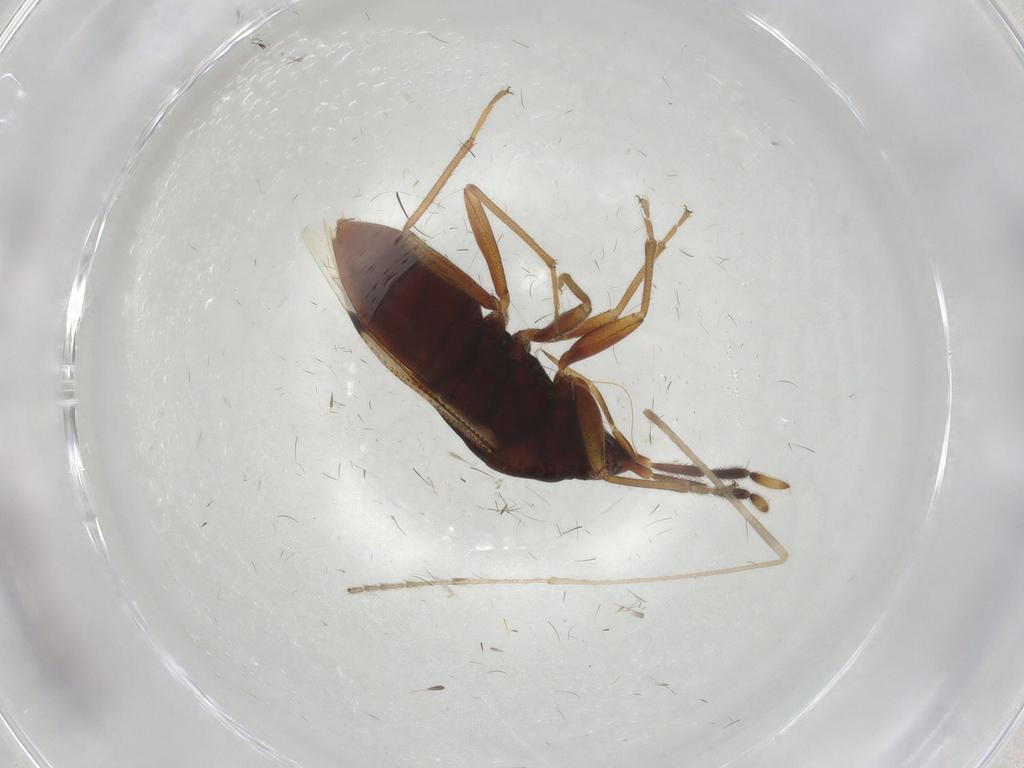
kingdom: Animalia
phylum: Arthropoda
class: Insecta
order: Hemiptera
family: Rhyparochromidae
